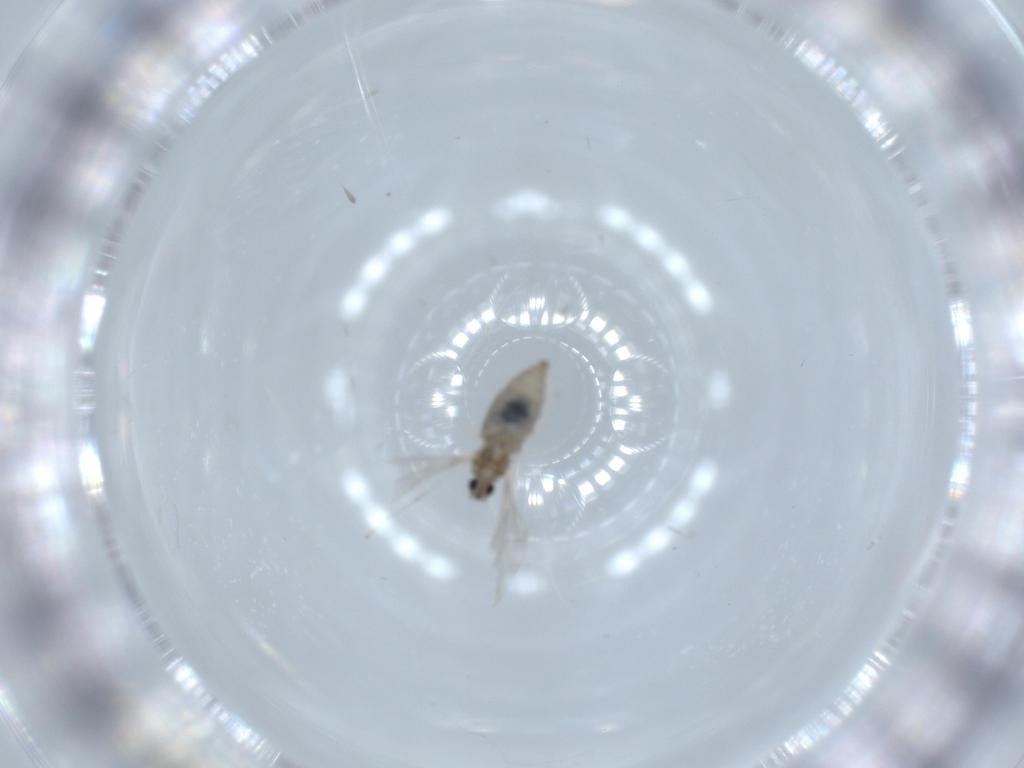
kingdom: Animalia
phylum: Arthropoda
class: Insecta
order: Diptera
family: Cecidomyiidae
